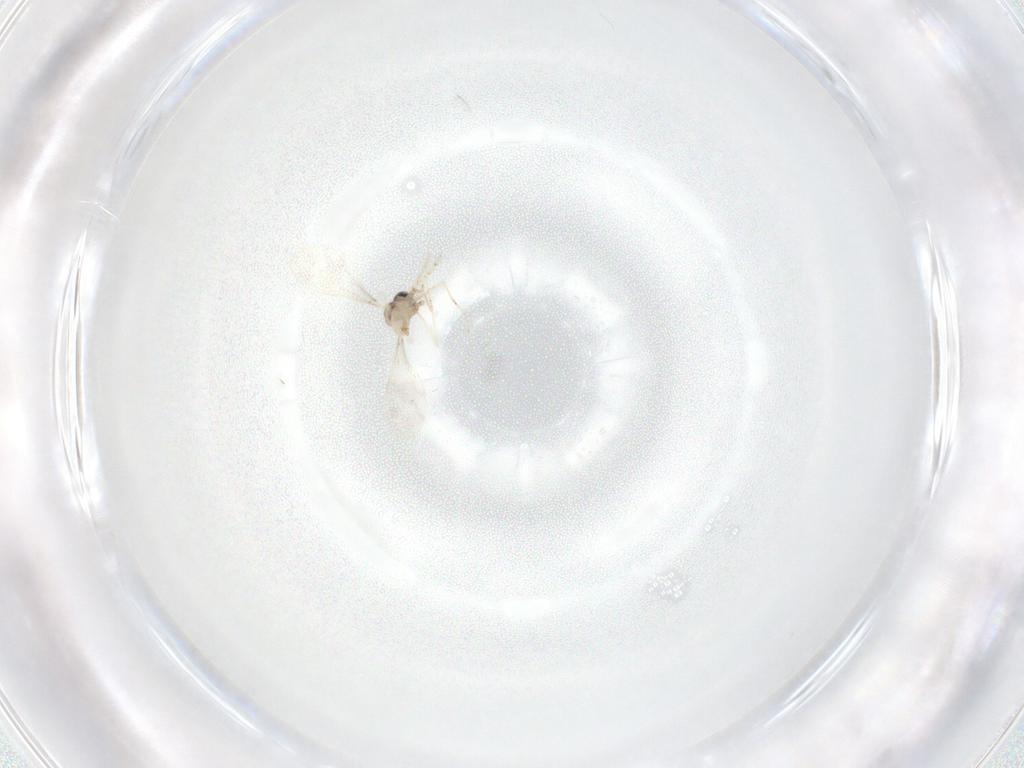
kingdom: Animalia
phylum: Arthropoda
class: Insecta
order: Diptera
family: Cecidomyiidae
